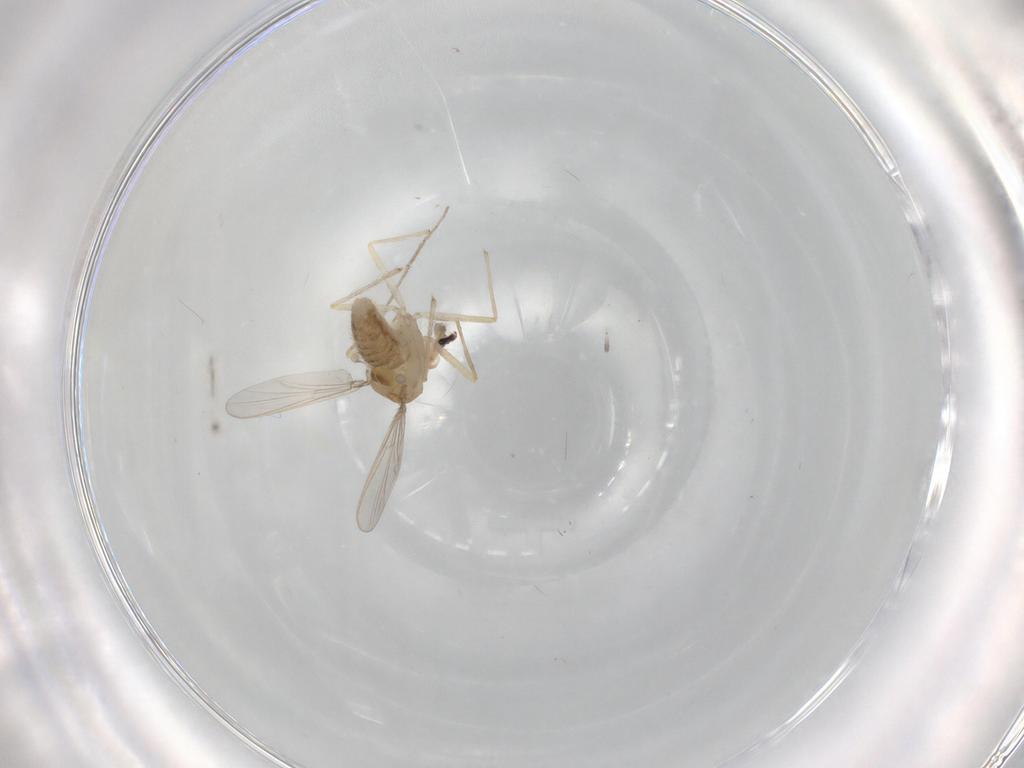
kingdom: Animalia
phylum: Arthropoda
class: Insecta
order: Diptera
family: Chironomidae
